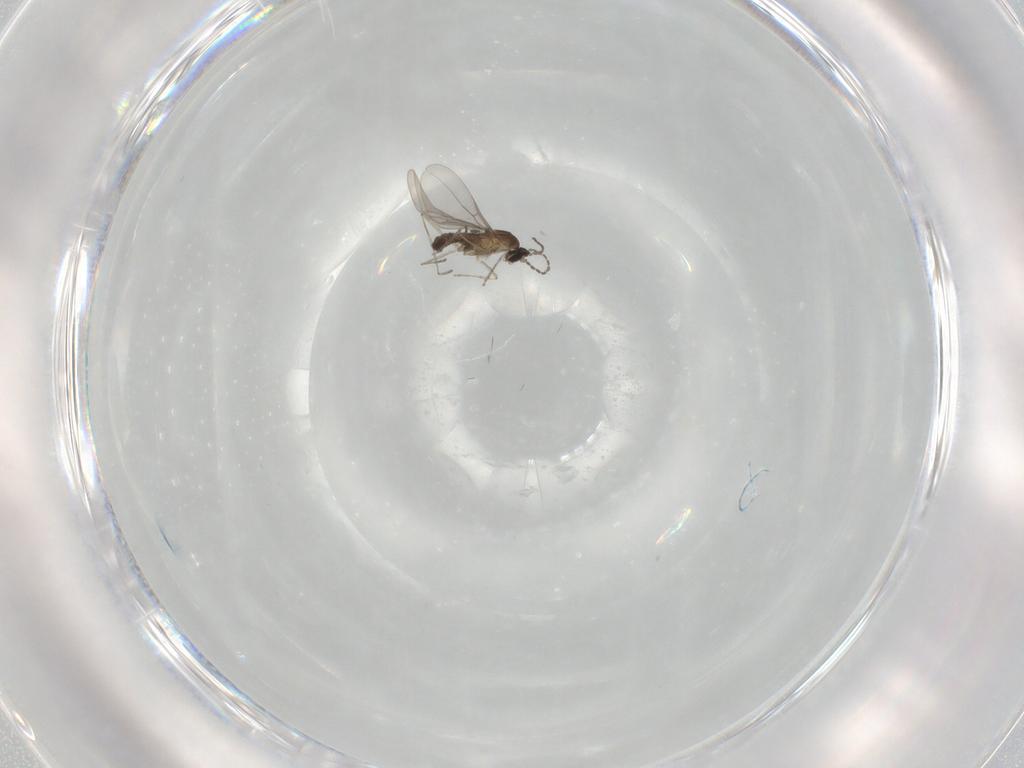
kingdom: Animalia
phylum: Arthropoda
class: Insecta
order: Diptera
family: Cecidomyiidae
